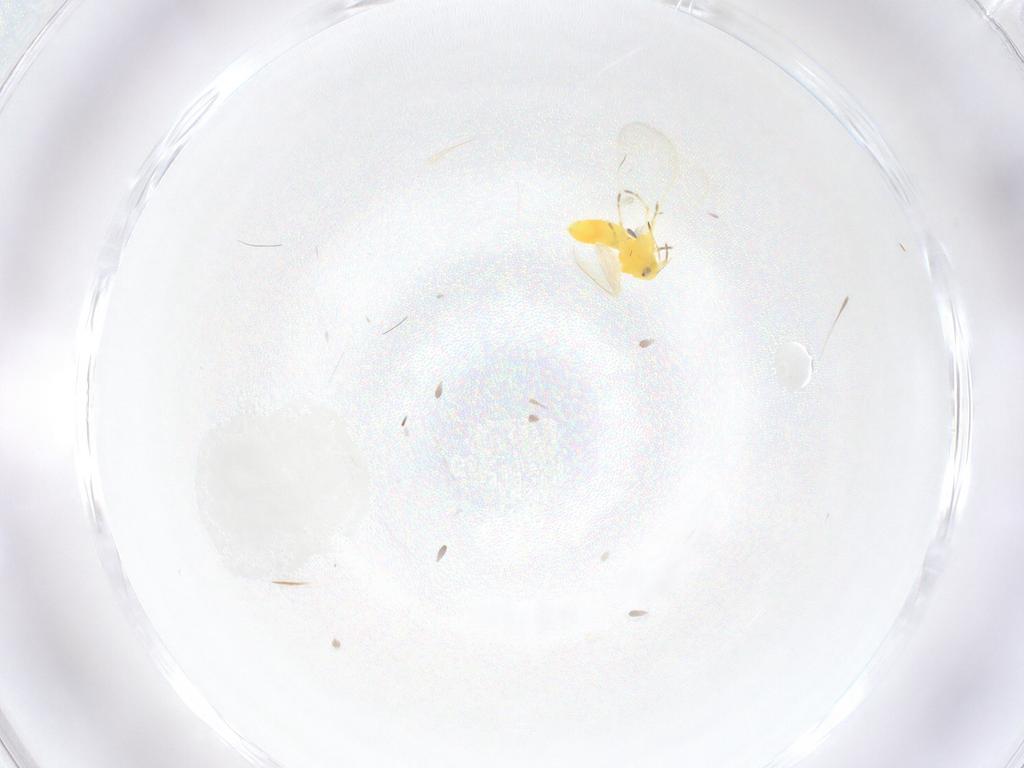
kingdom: Animalia
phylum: Arthropoda
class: Insecta
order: Hemiptera
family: Aleyrodidae
